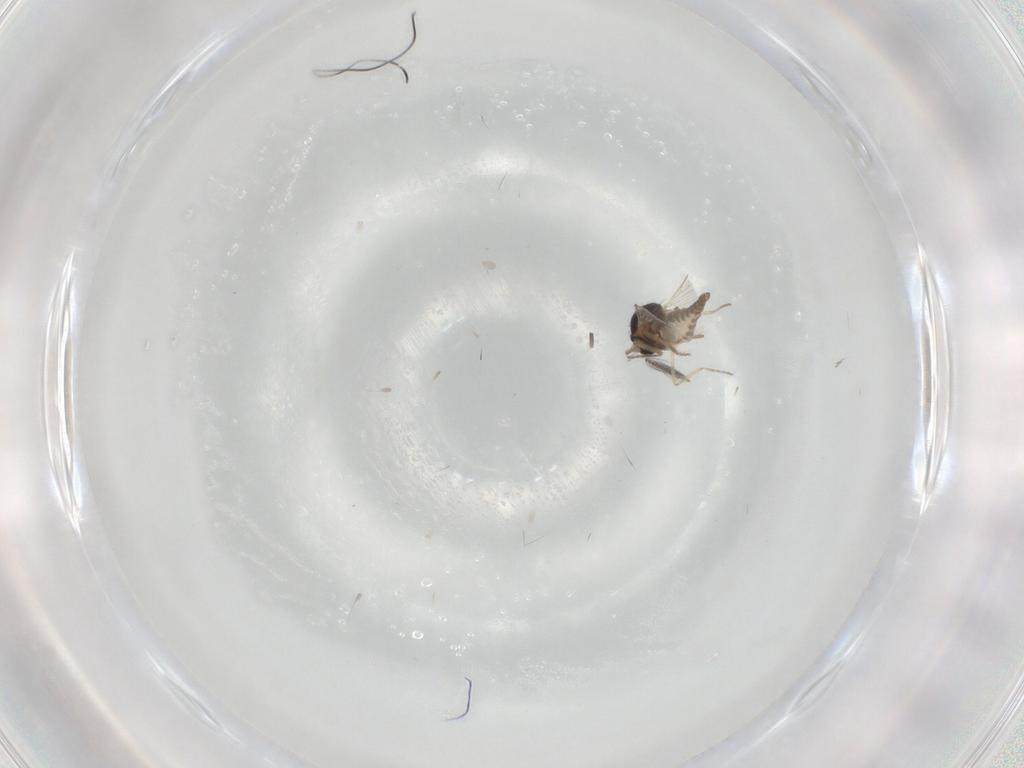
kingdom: Animalia
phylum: Arthropoda
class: Insecta
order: Diptera
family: Ceratopogonidae
